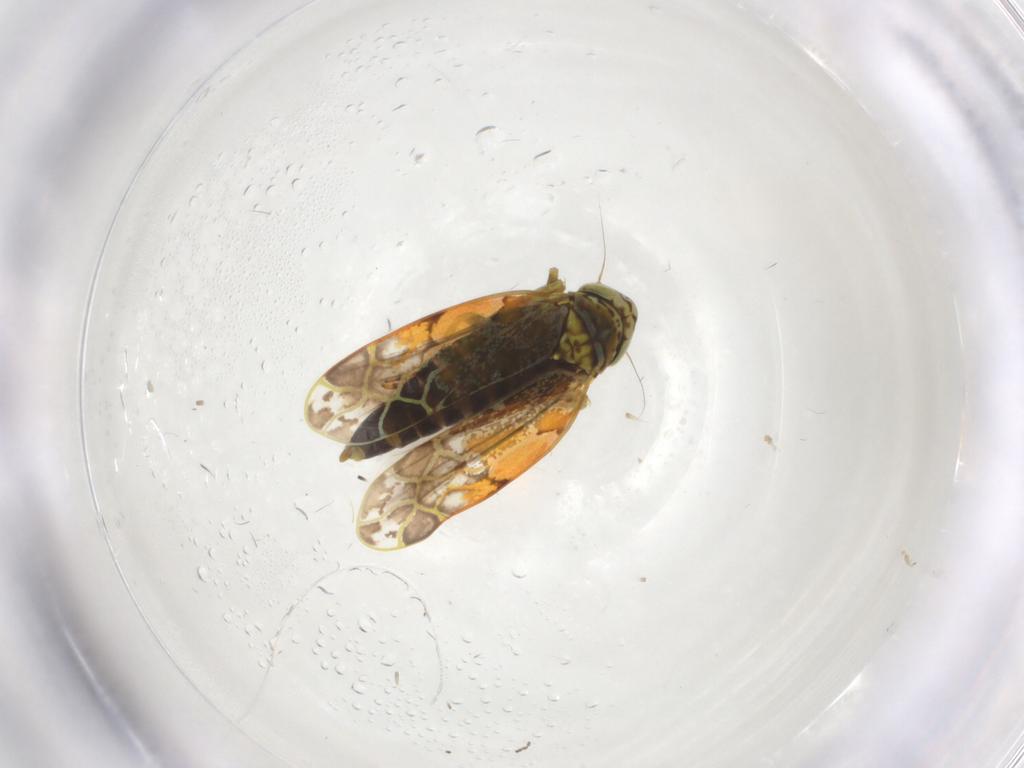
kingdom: Animalia
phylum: Arthropoda
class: Insecta
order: Hemiptera
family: Cicadellidae
